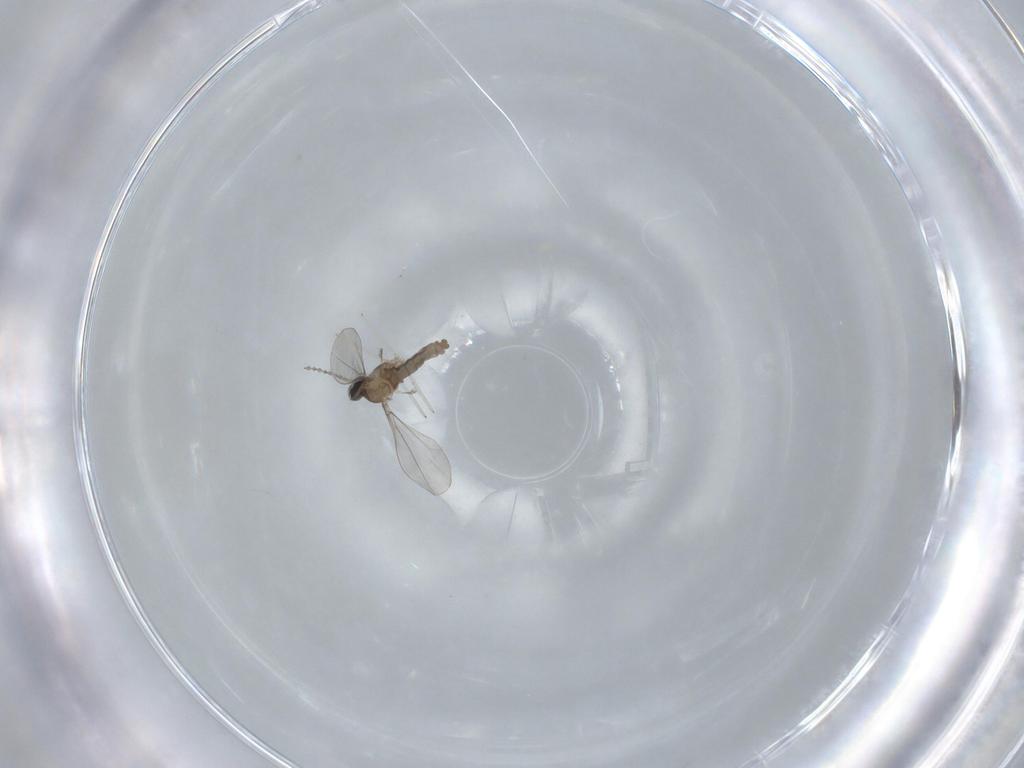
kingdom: Animalia
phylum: Arthropoda
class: Insecta
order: Diptera
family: Cecidomyiidae
